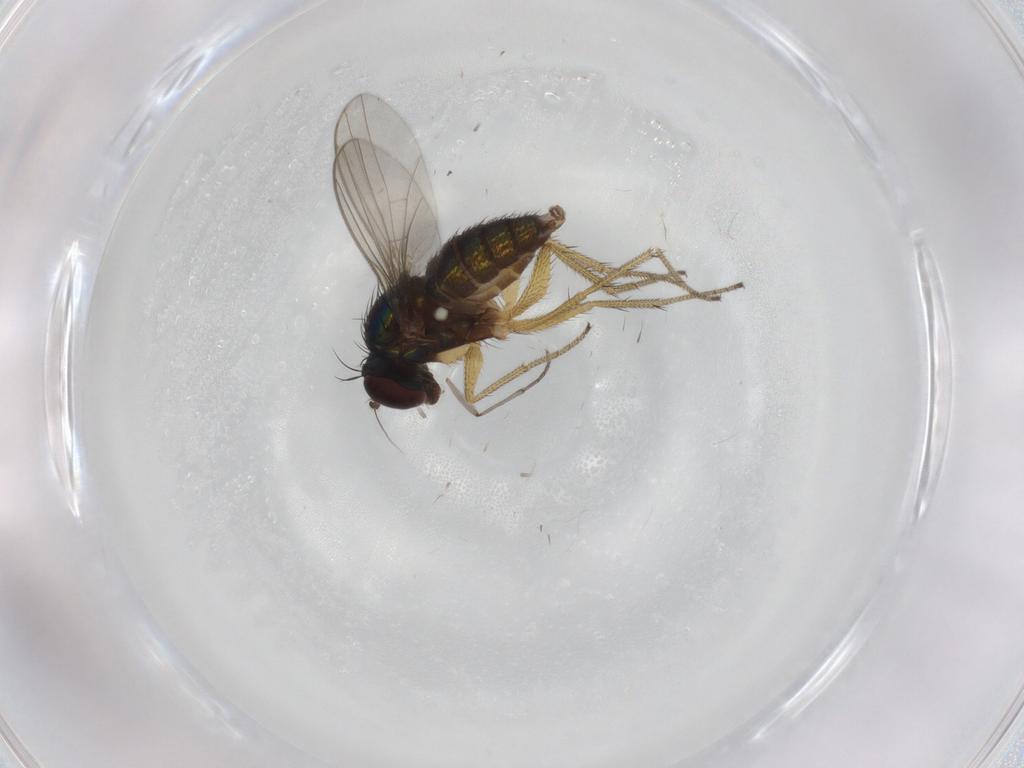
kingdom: Animalia
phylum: Arthropoda
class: Insecta
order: Diptera
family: Sciaridae
